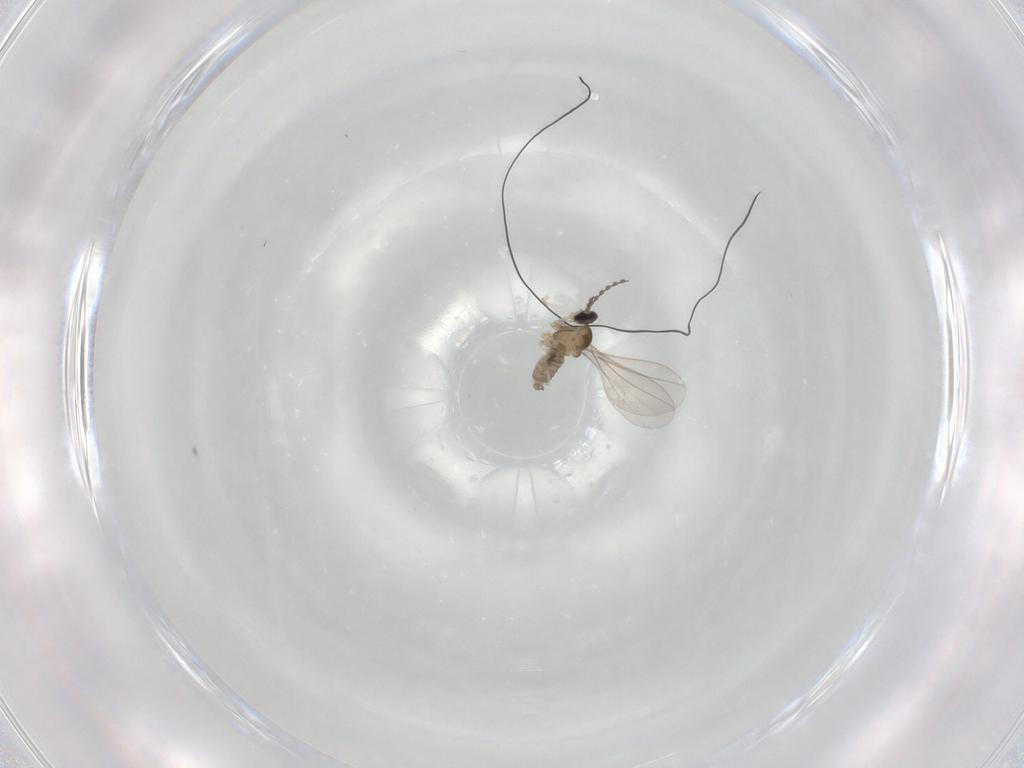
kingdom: Animalia
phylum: Arthropoda
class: Insecta
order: Diptera
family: Cecidomyiidae
